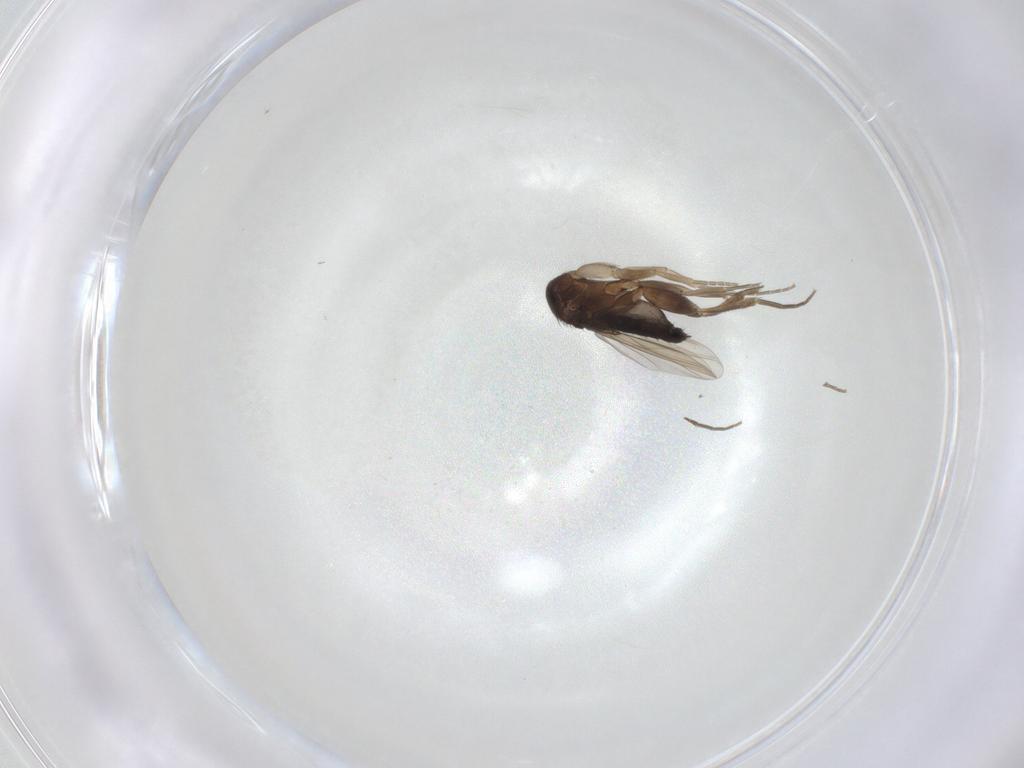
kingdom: Animalia
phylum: Arthropoda
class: Insecta
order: Diptera
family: Phoridae
